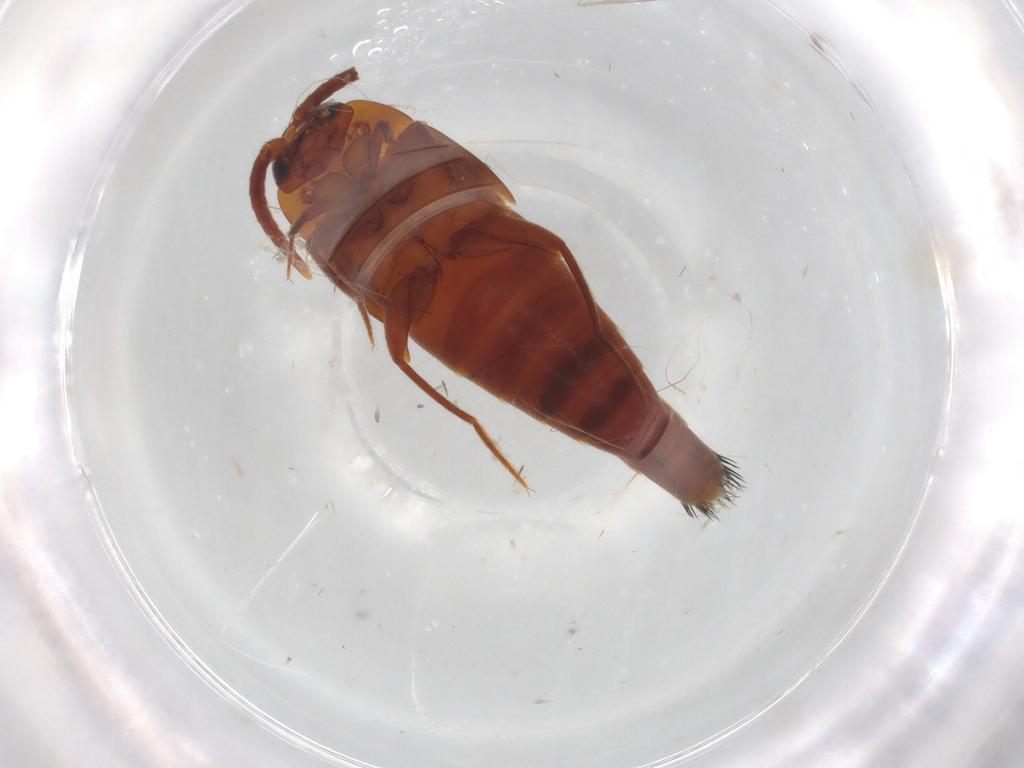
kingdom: Animalia
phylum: Arthropoda
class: Insecta
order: Coleoptera
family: Staphylinidae
